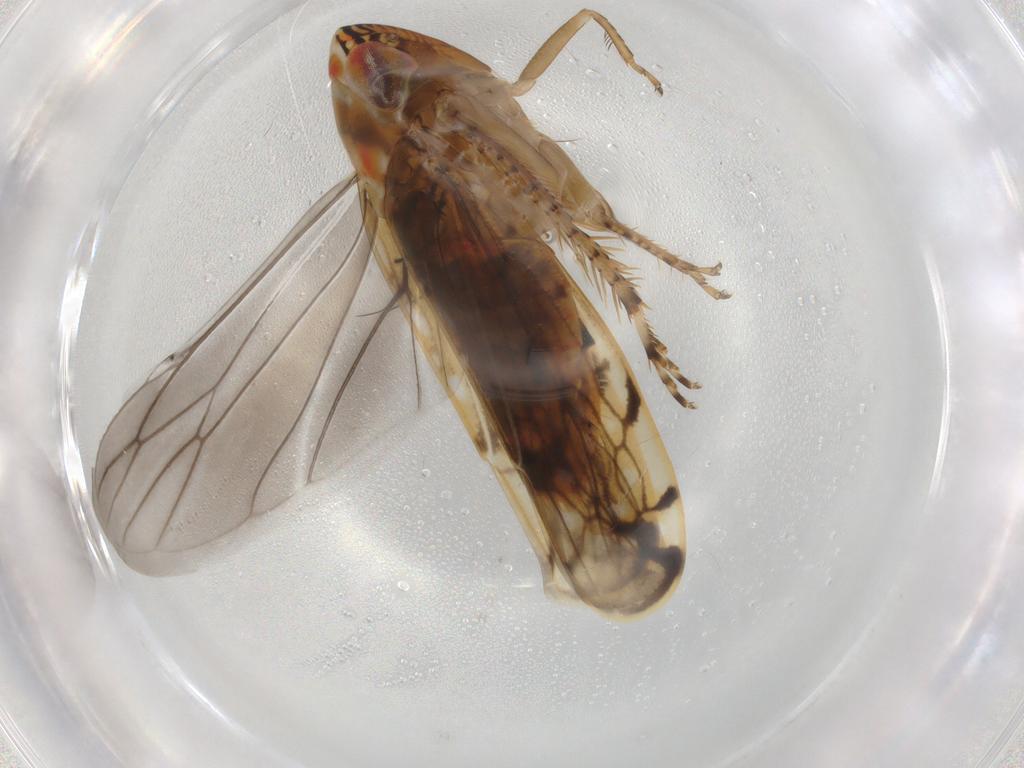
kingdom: Animalia
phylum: Arthropoda
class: Insecta
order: Hemiptera
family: Cicadellidae
